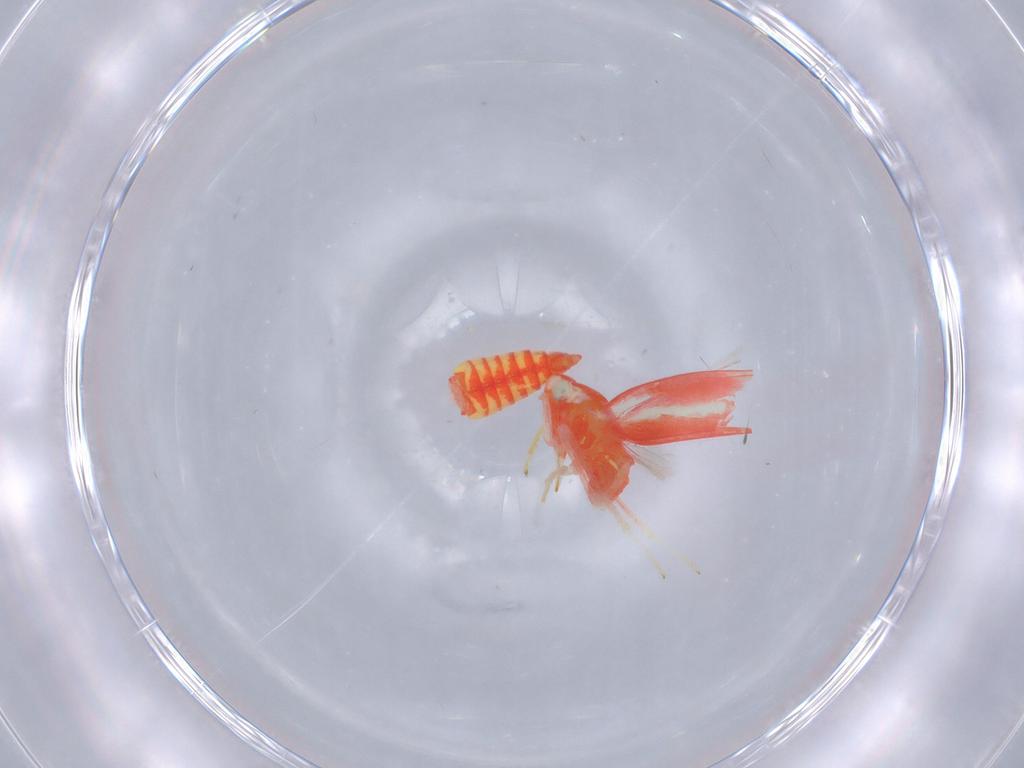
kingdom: Animalia
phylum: Arthropoda
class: Insecta
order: Hemiptera
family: Cicadellidae
